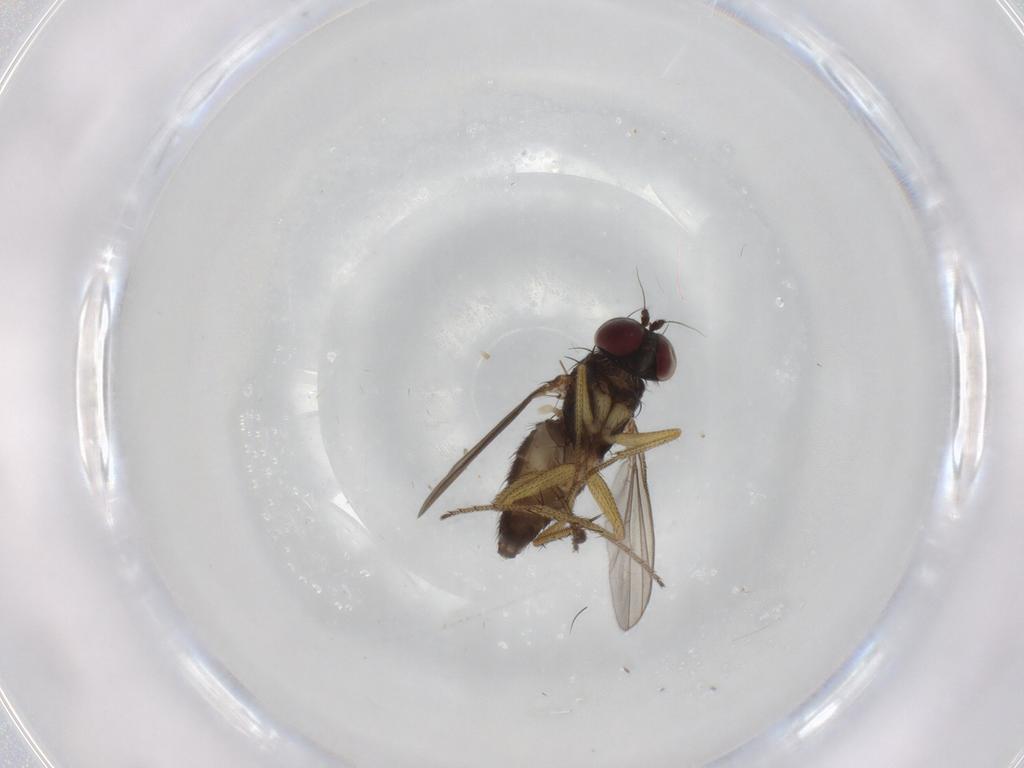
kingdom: Animalia
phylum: Arthropoda
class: Insecta
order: Diptera
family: Dolichopodidae
